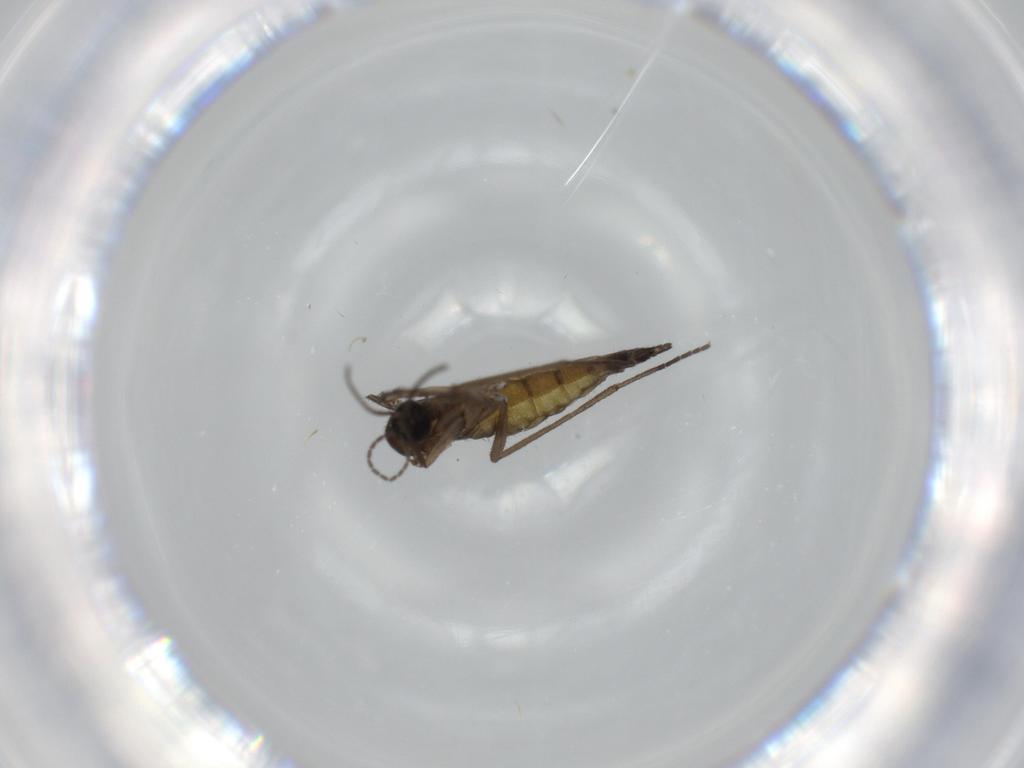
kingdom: Animalia
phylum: Arthropoda
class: Insecta
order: Diptera
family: Sciaridae
